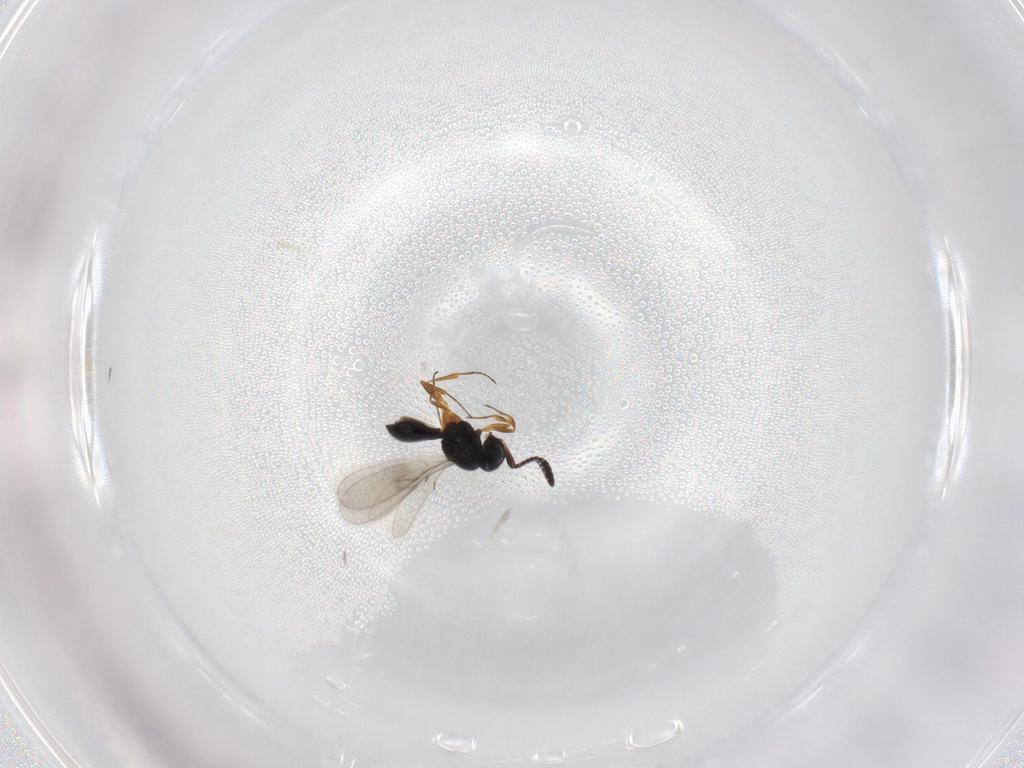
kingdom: Animalia
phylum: Arthropoda
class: Insecta
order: Hymenoptera
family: Scelionidae
